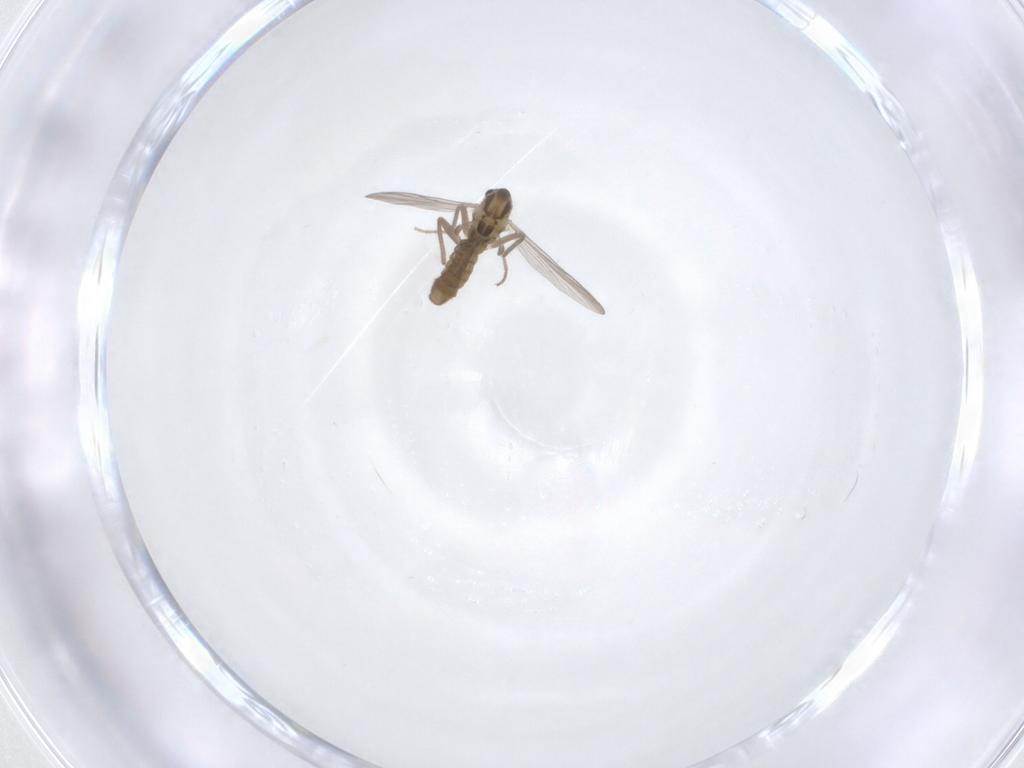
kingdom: Animalia
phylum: Arthropoda
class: Insecta
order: Diptera
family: Chironomidae
